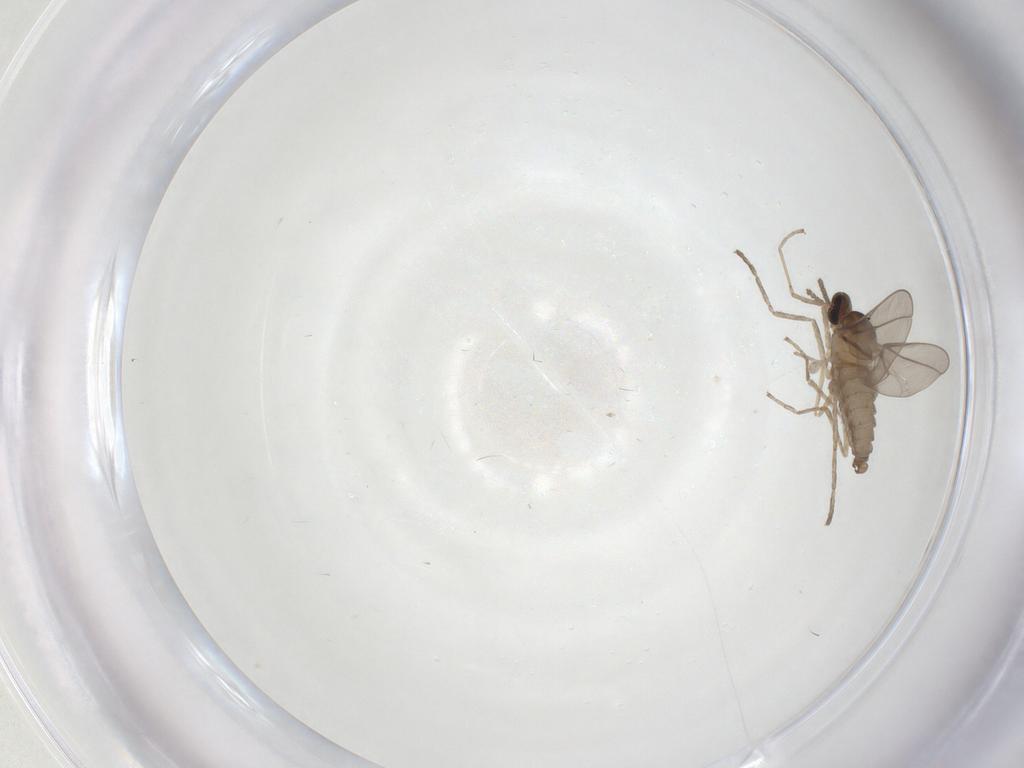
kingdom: Animalia
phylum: Arthropoda
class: Insecta
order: Diptera
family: Cecidomyiidae
